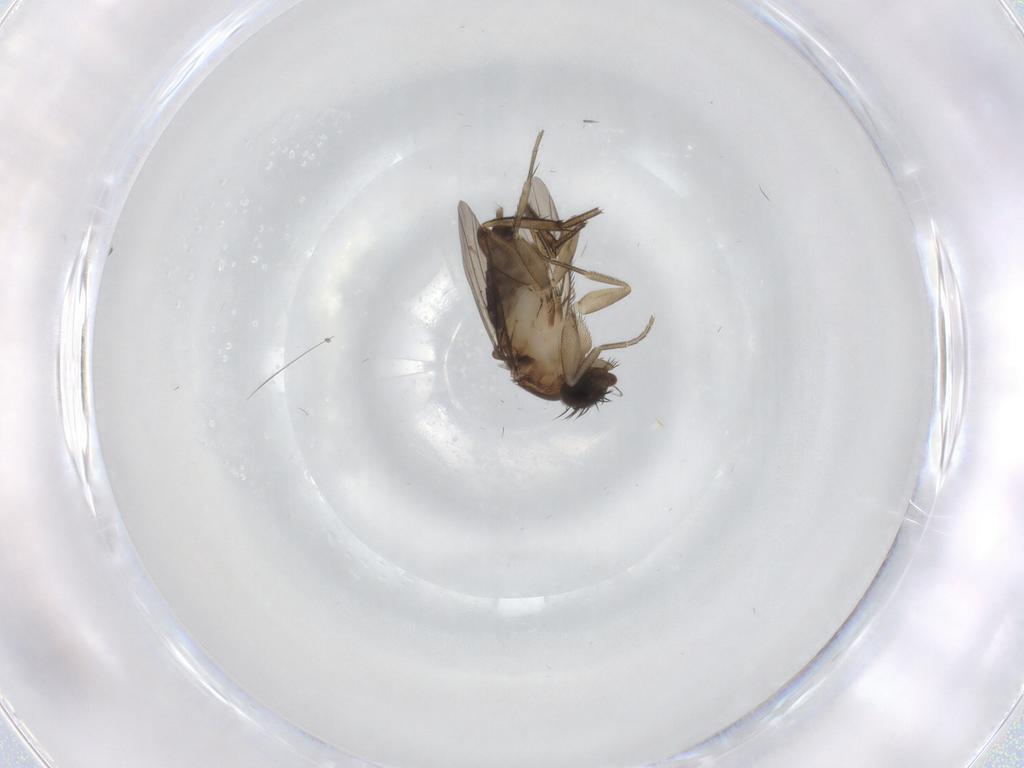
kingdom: Animalia
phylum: Arthropoda
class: Insecta
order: Diptera
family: Phoridae
